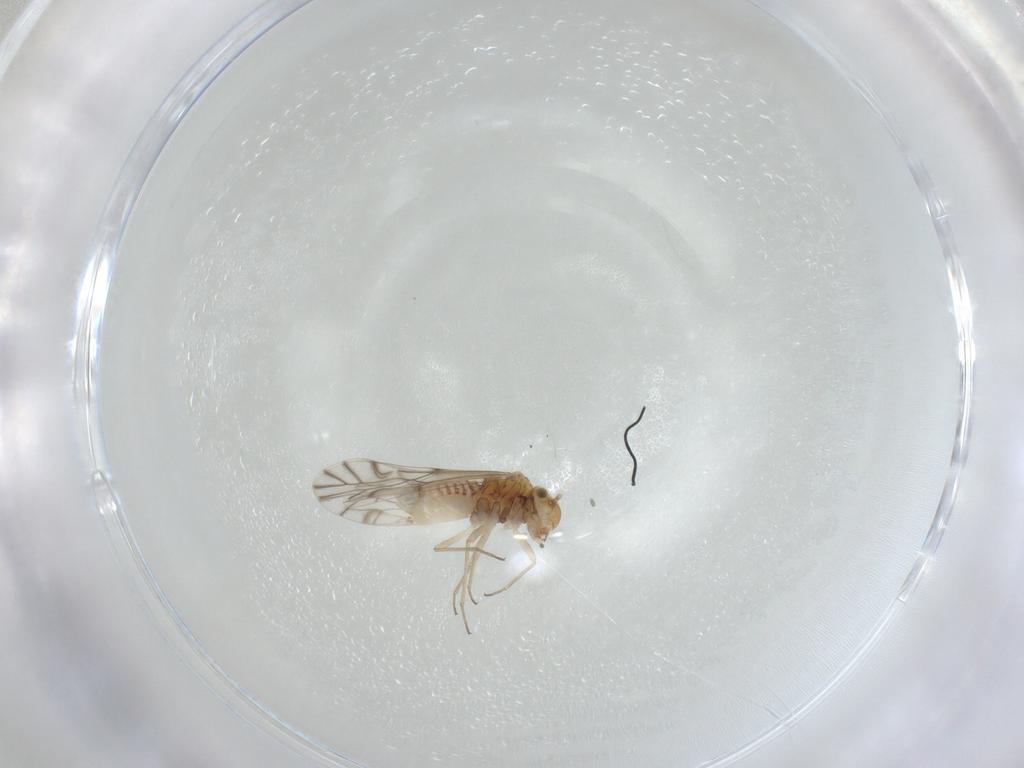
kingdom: Animalia
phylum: Arthropoda
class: Insecta
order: Psocodea
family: Lachesillidae
